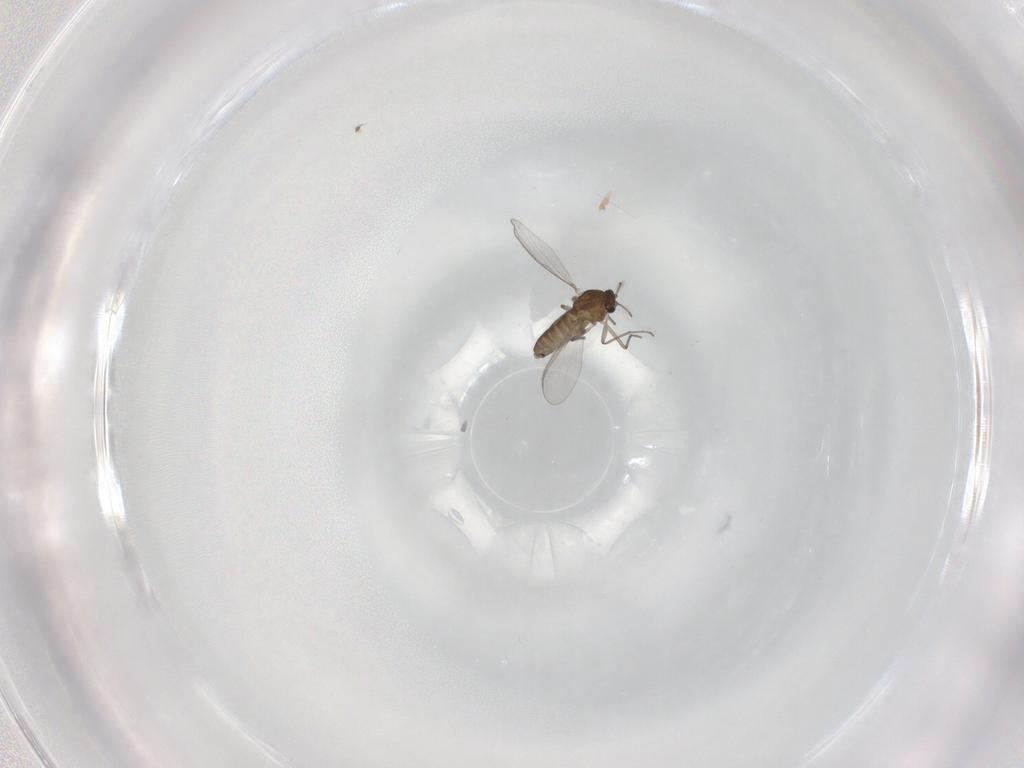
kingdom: Animalia
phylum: Arthropoda
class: Insecta
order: Diptera
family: Chironomidae
